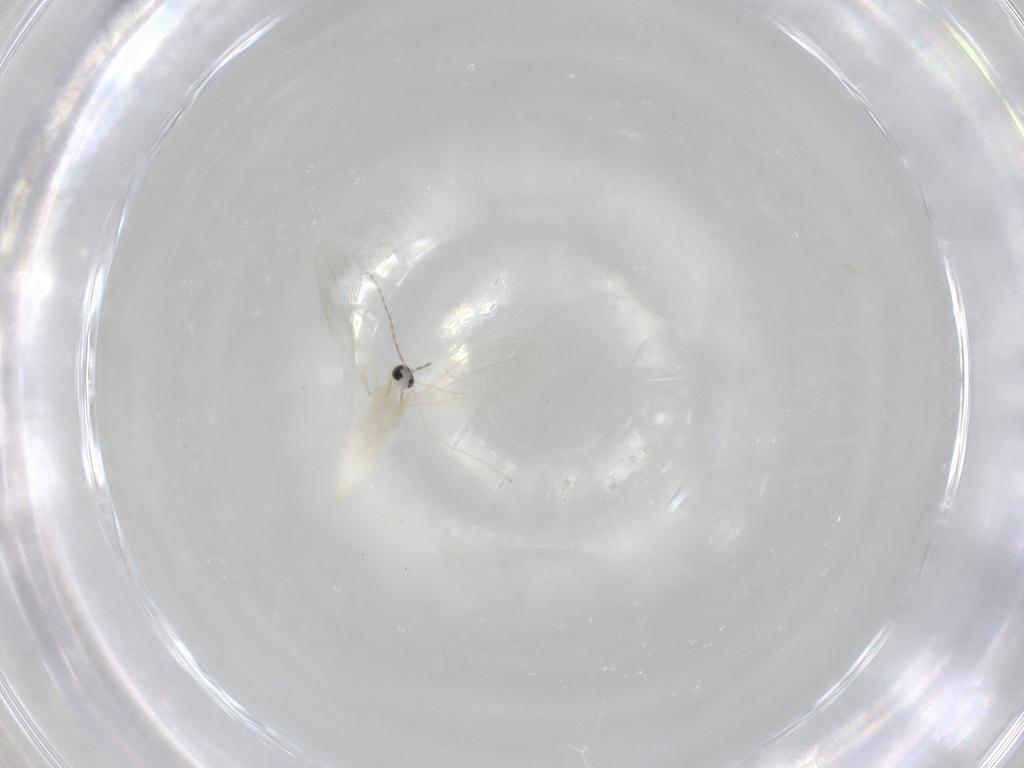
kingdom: Animalia
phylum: Arthropoda
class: Insecta
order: Diptera
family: Cecidomyiidae
